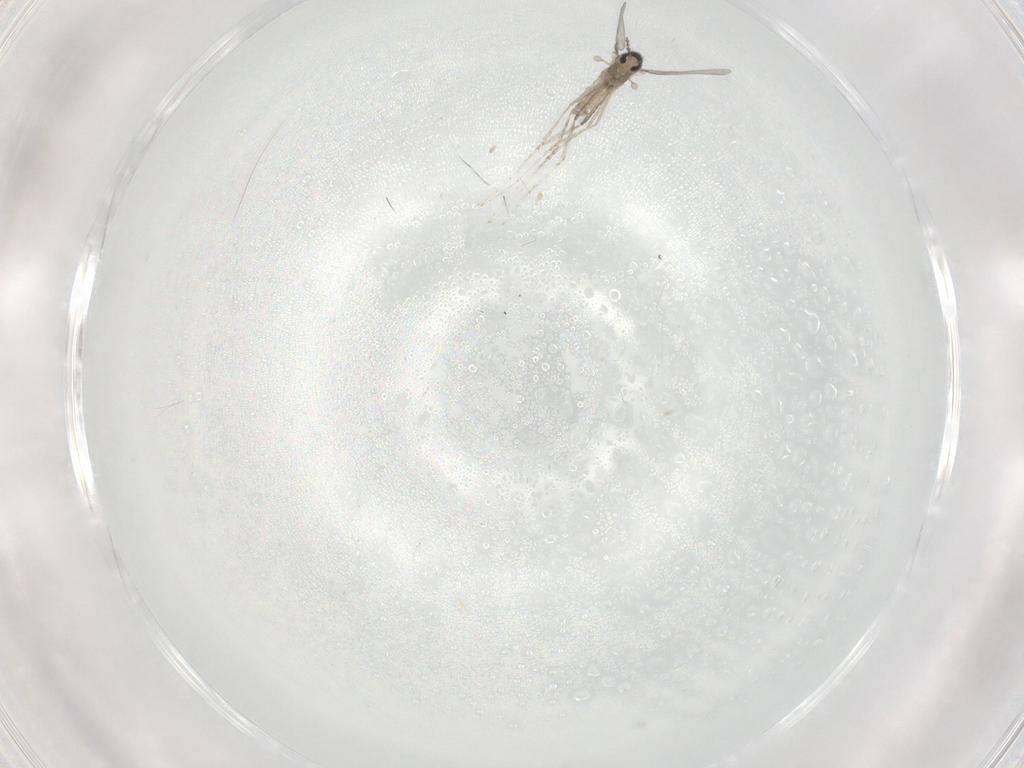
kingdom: Animalia
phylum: Arthropoda
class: Insecta
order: Diptera
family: Cecidomyiidae
